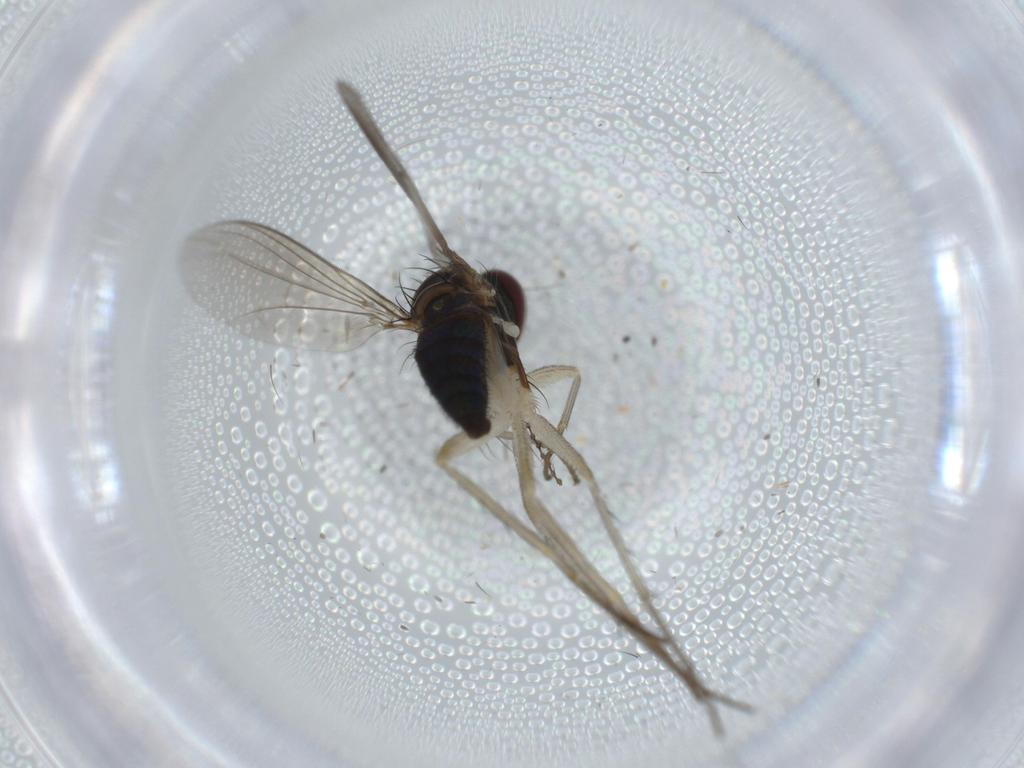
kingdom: Animalia
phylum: Arthropoda
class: Insecta
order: Diptera
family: Dolichopodidae
